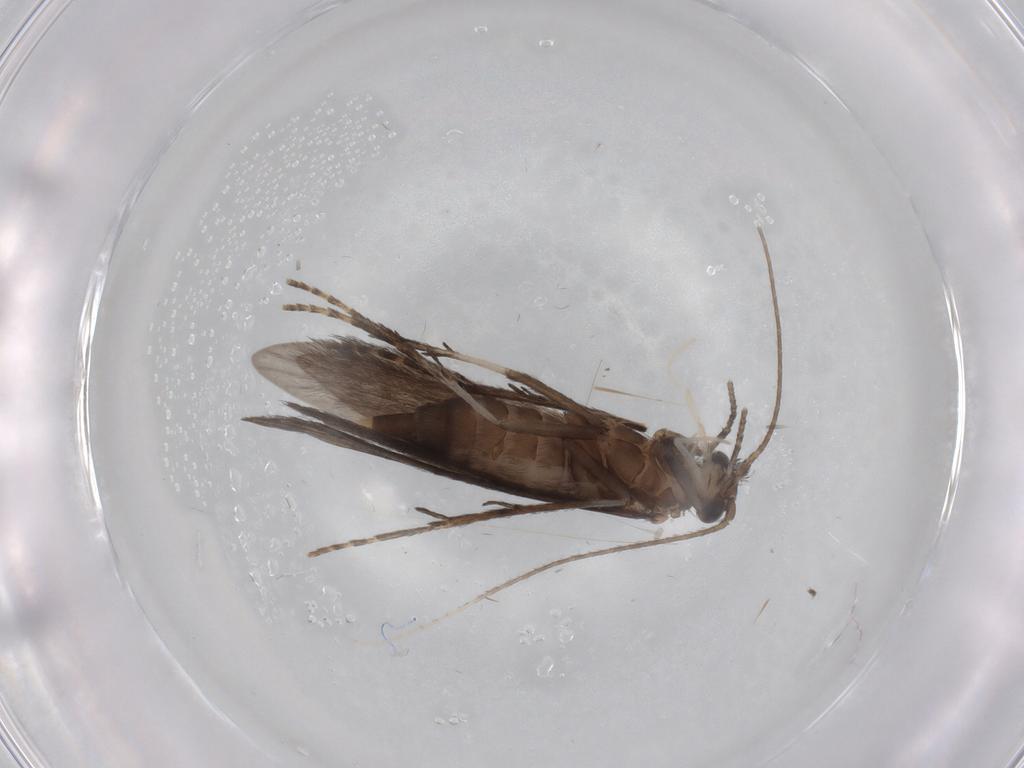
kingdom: Animalia
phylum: Arthropoda
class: Insecta
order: Trichoptera
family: Xiphocentronidae
